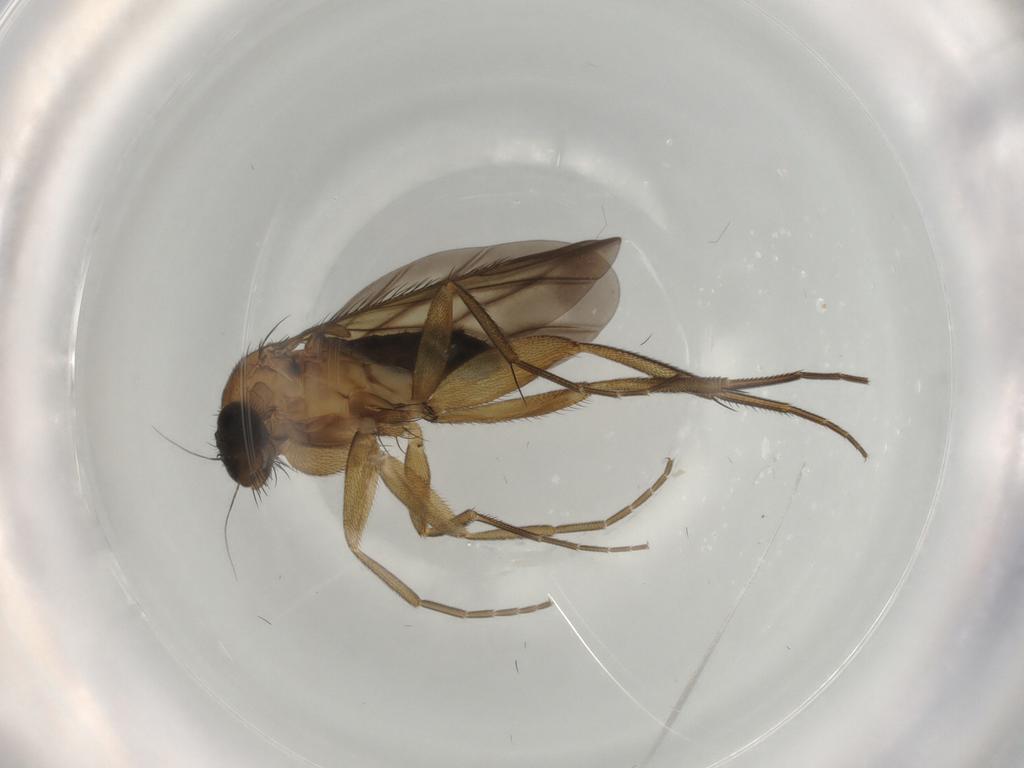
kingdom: Animalia
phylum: Arthropoda
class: Insecta
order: Diptera
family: Phoridae
